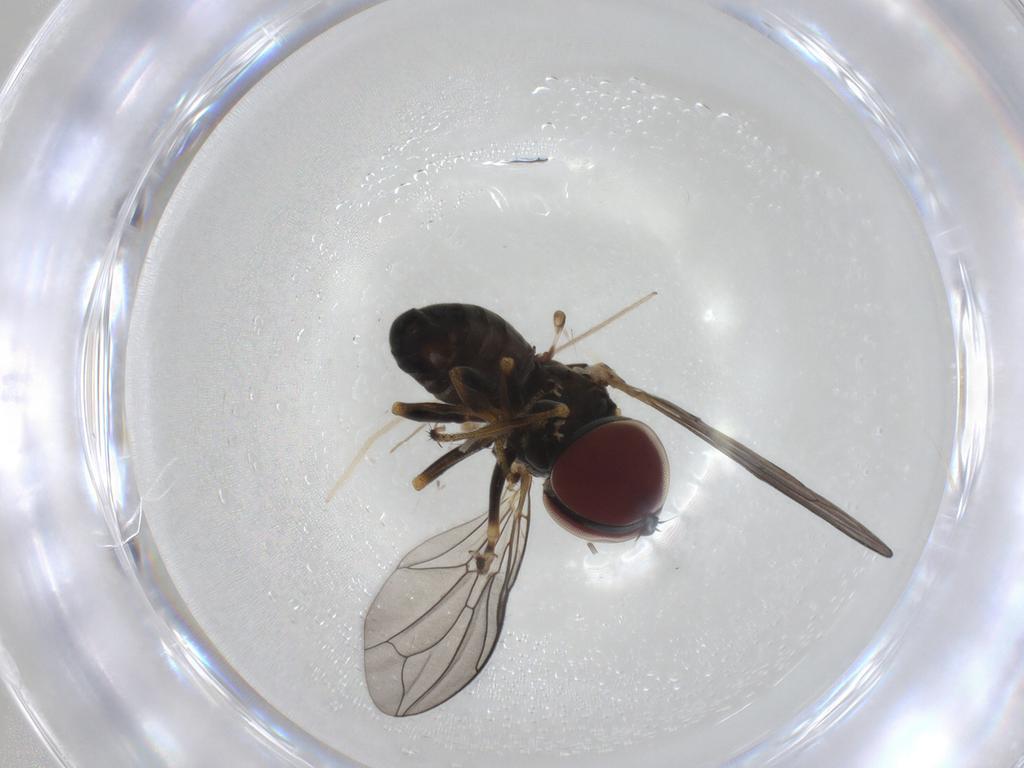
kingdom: Animalia
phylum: Arthropoda
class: Insecta
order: Diptera
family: Pipunculidae
